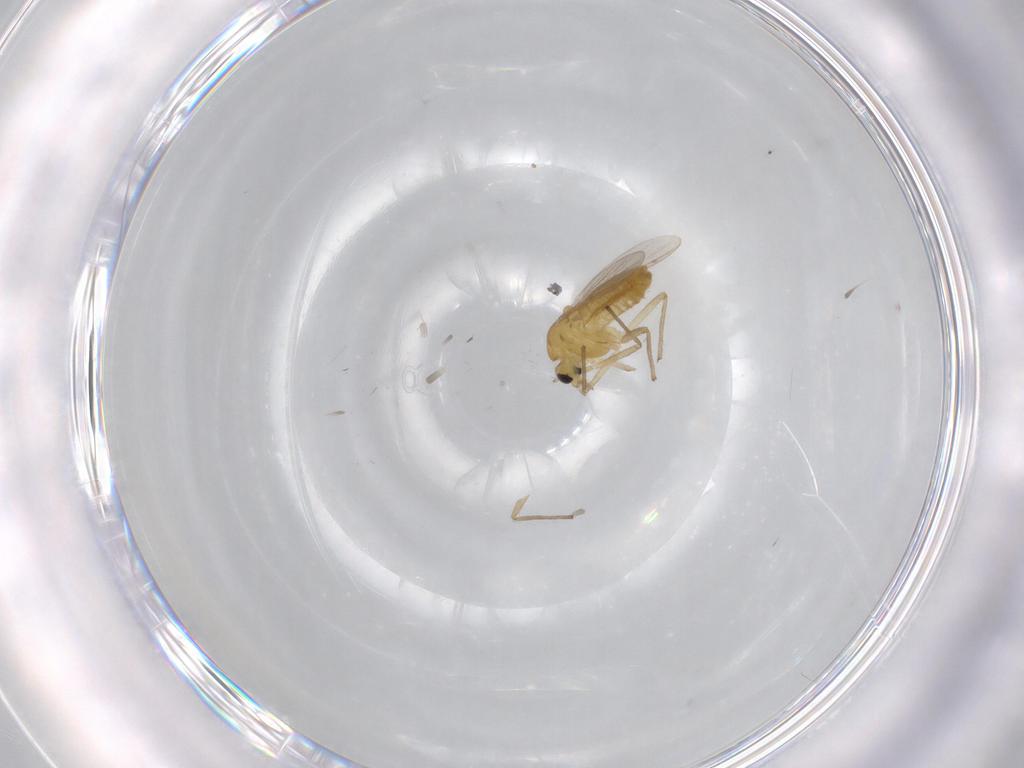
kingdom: Animalia
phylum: Arthropoda
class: Insecta
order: Diptera
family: Chironomidae
